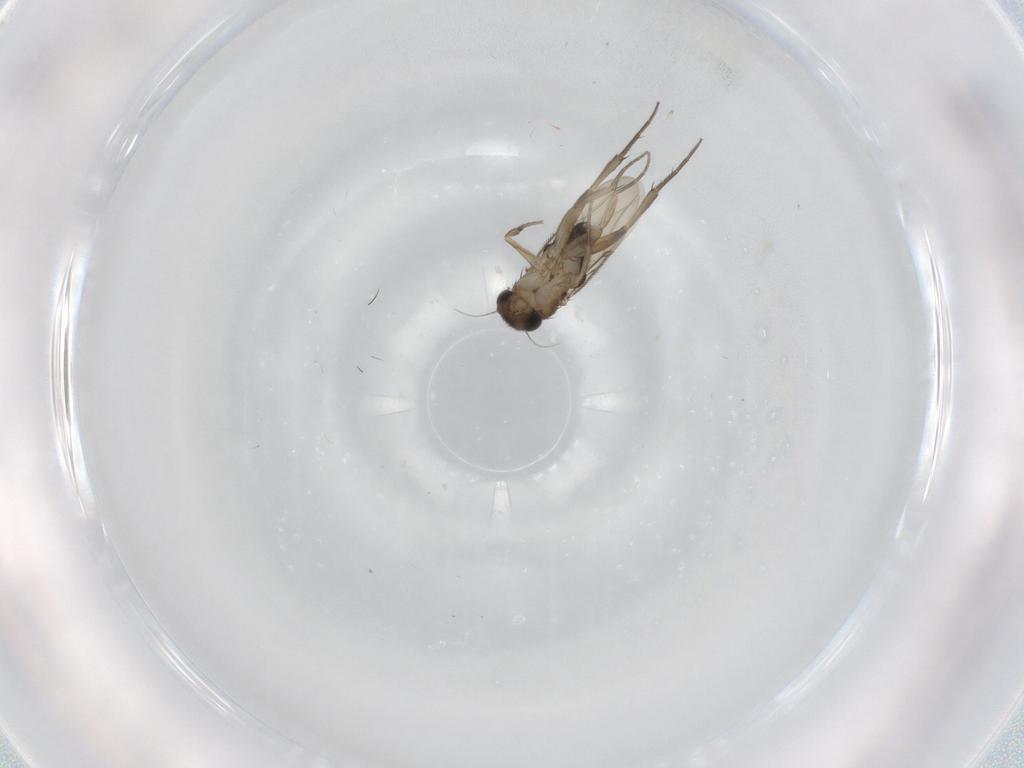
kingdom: Animalia
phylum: Arthropoda
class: Insecta
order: Diptera
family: Phoridae
